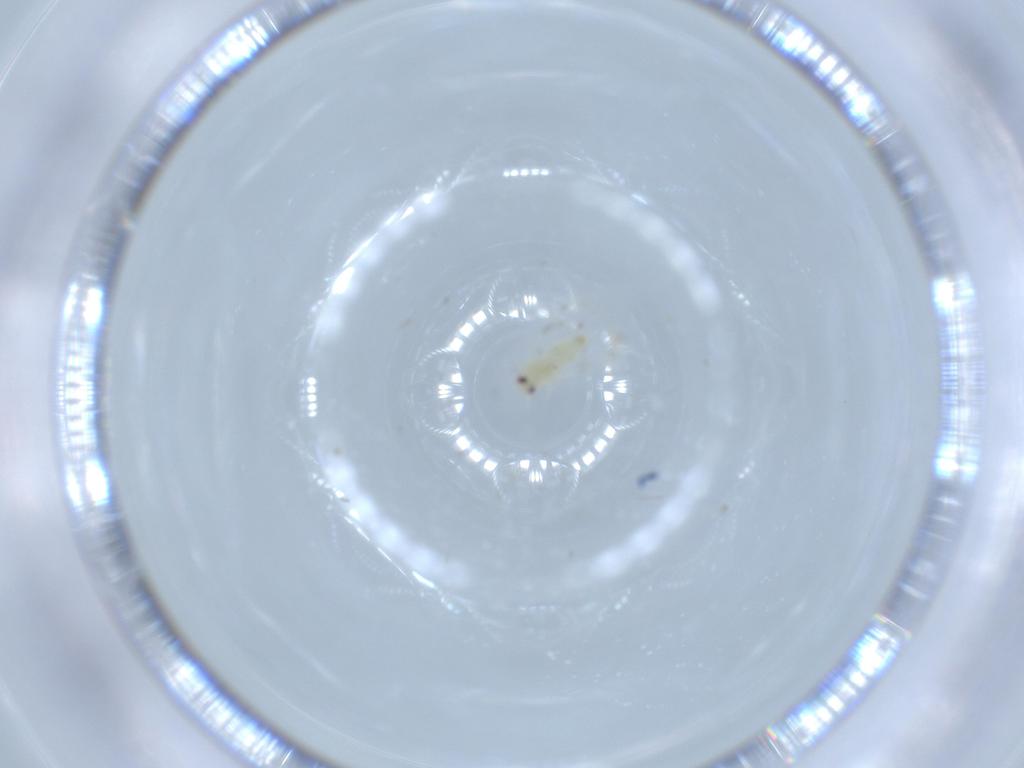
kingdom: Animalia
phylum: Arthropoda
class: Insecta
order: Hemiptera
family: Aleyrodidae
